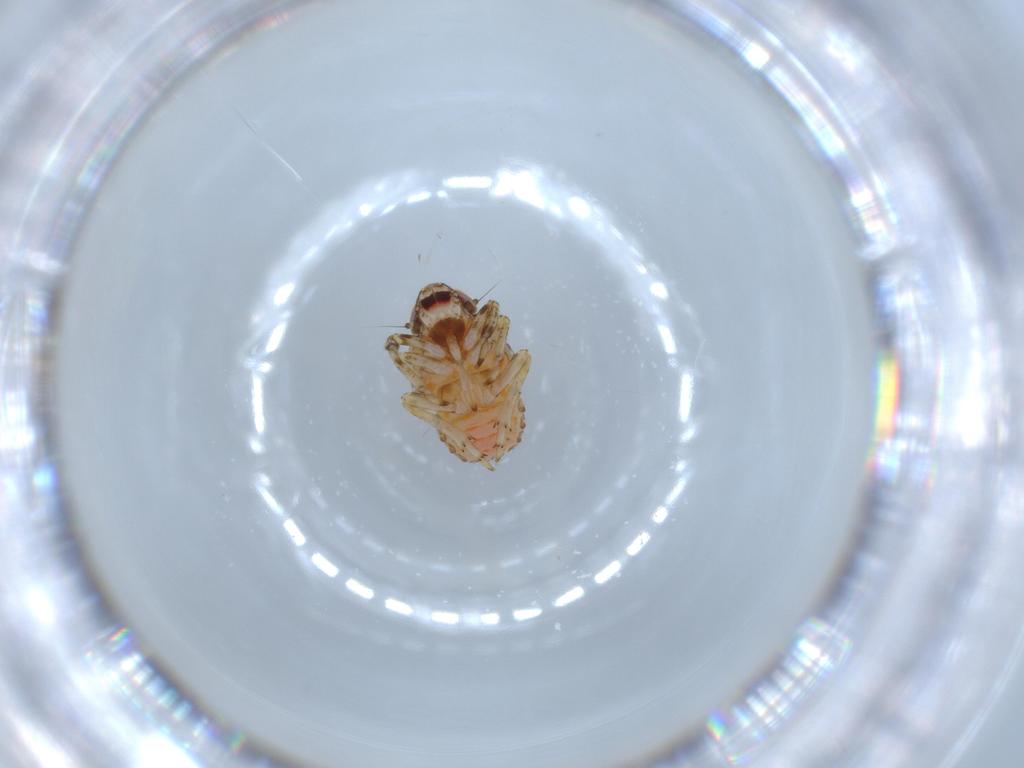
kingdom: Animalia
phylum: Arthropoda
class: Insecta
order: Hemiptera
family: Issidae
